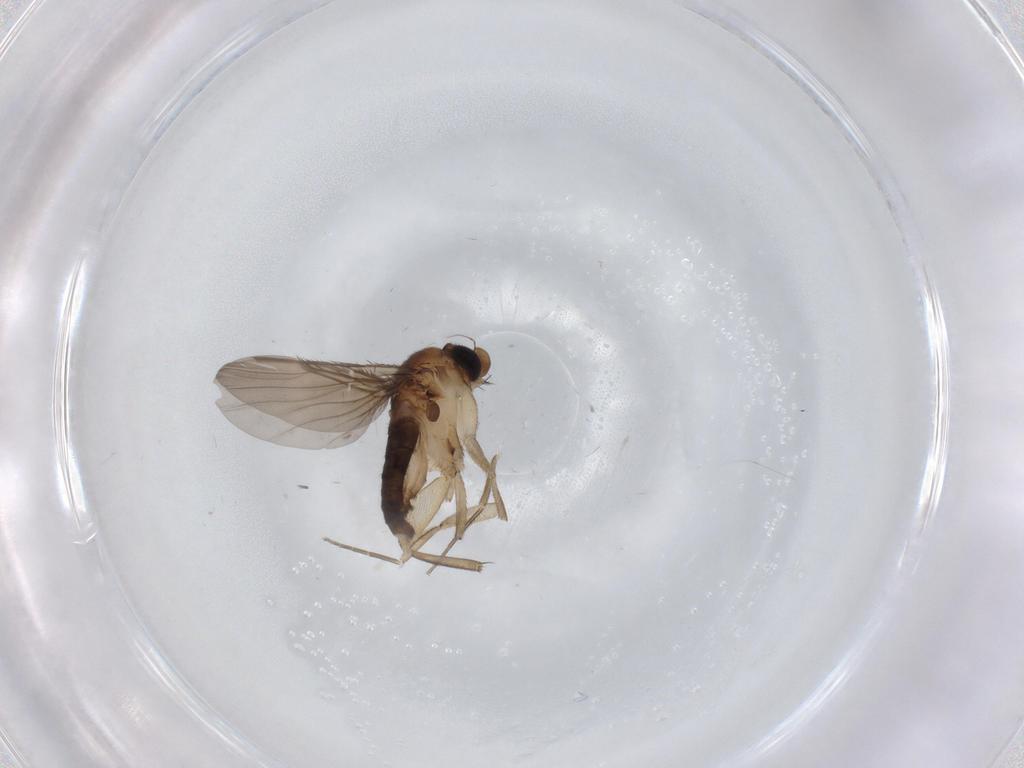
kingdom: Animalia
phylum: Arthropoda
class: Insecta
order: Diptera
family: Phoridae
